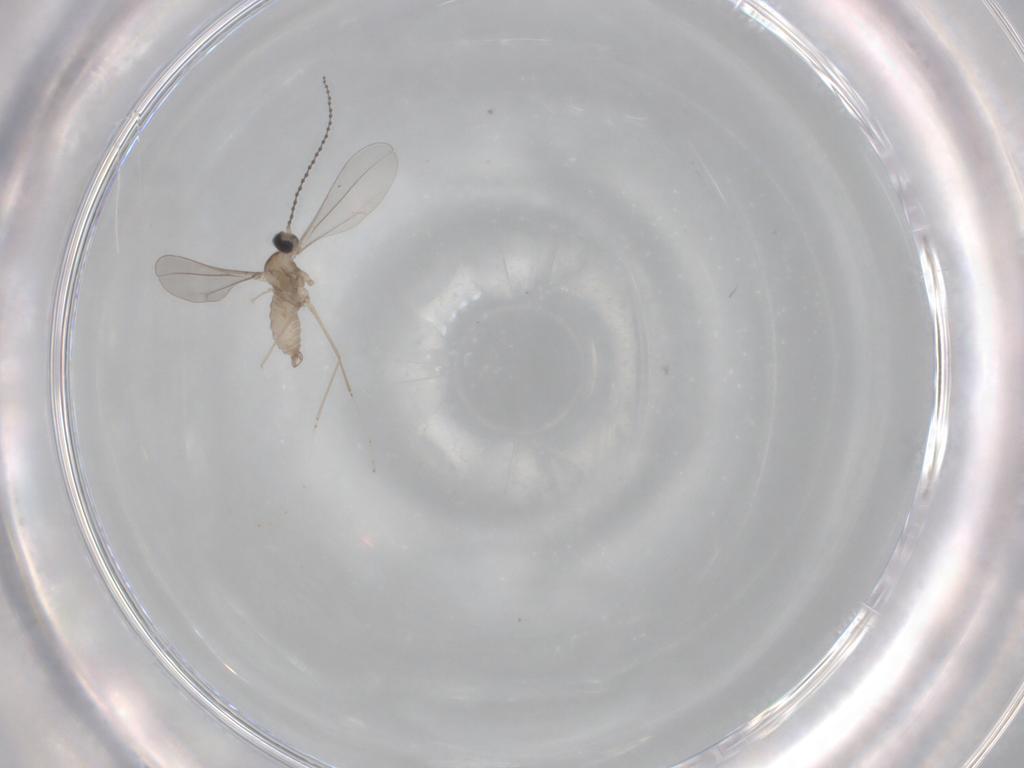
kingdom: Animalia
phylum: Arthropoda
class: Insecta
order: Diptera
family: Cecidomyiidae
